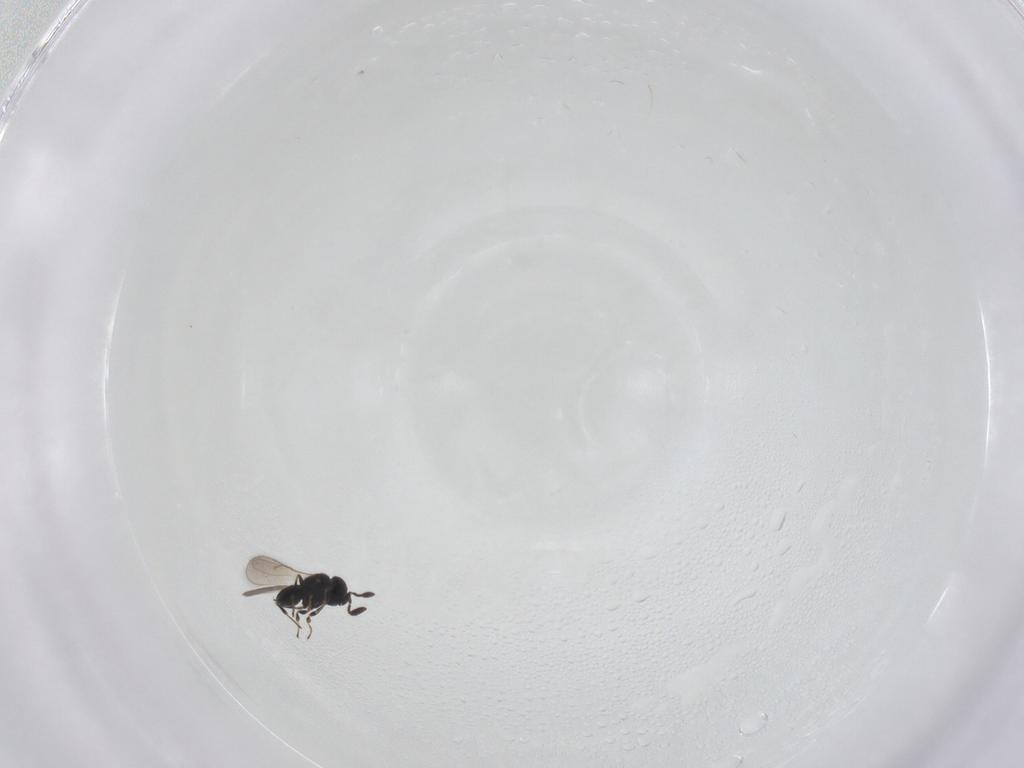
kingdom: Animalia
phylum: Arthropoda
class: Insecta
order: Hymenoptera
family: Scelionidae
